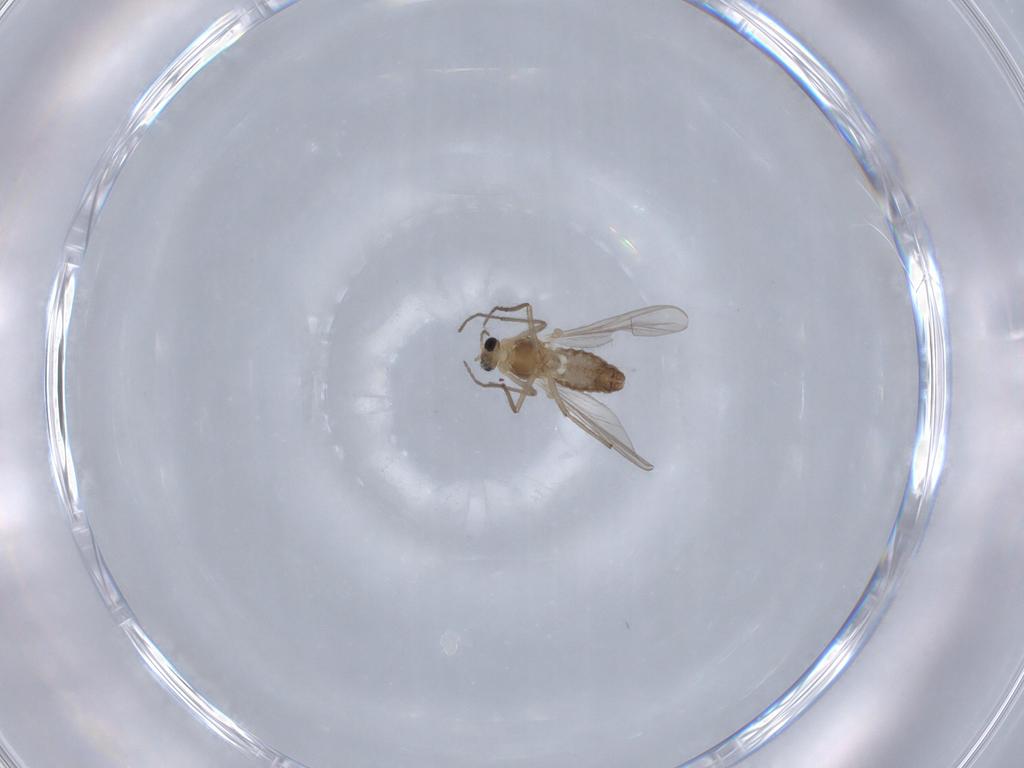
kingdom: Animalia
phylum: Arthropoda
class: Insecta
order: Diptera
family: Chironomidae
